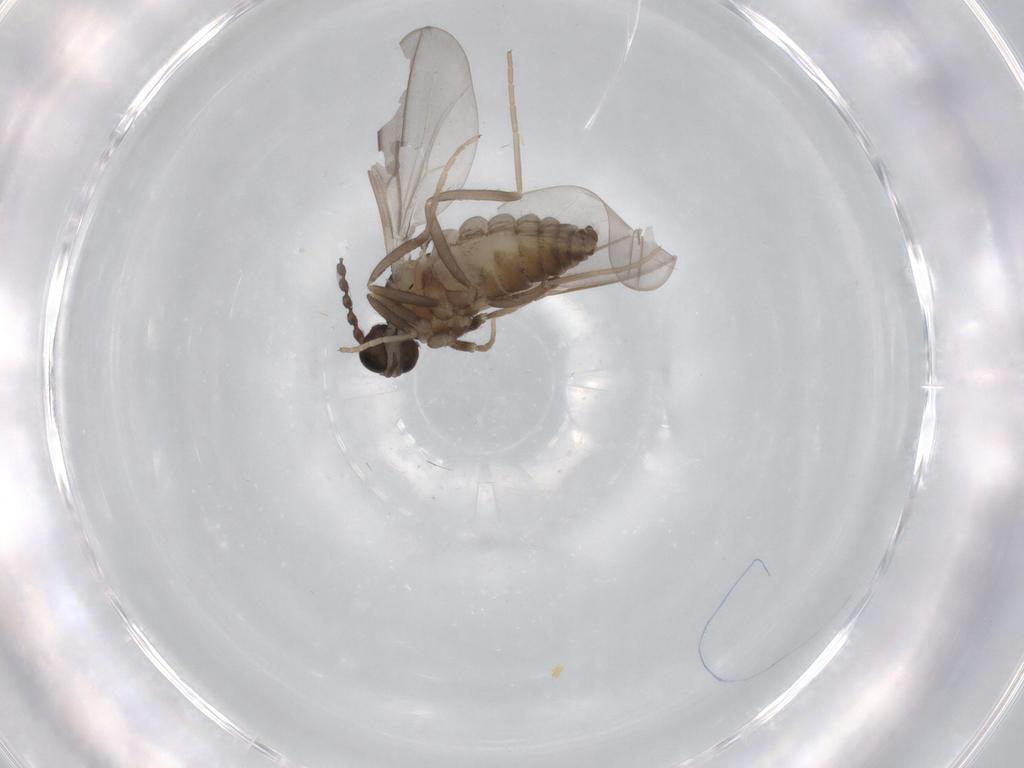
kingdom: Animalia
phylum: Arthropoda
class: Insecta
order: Diptera
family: Cecidomyiidae
